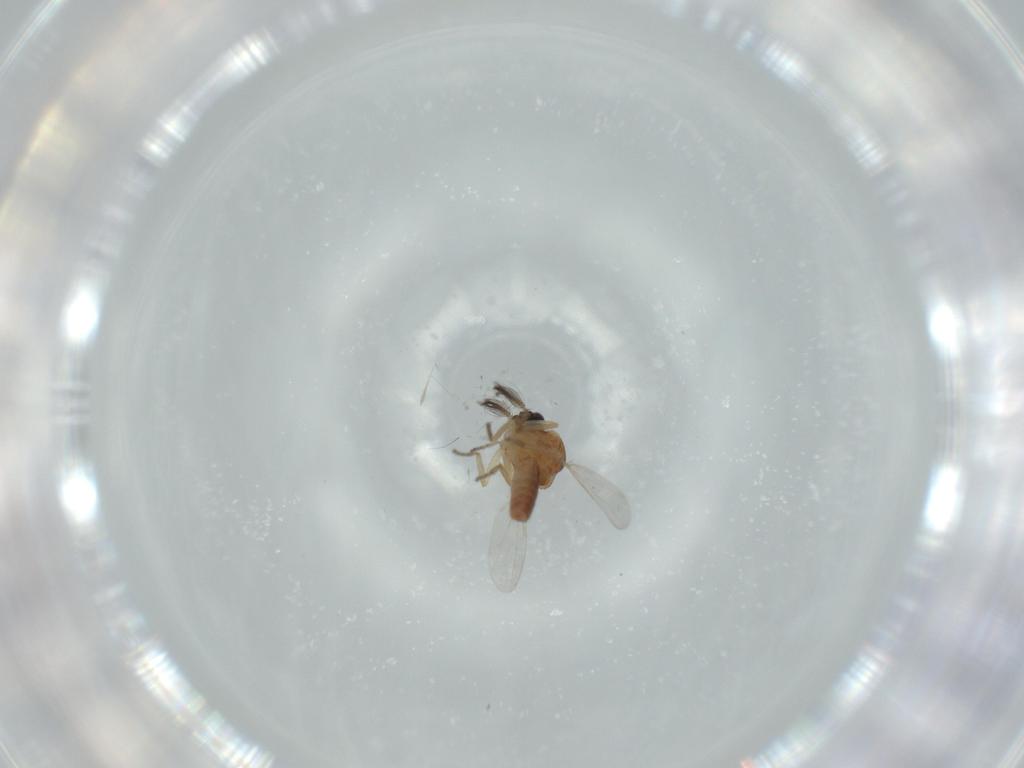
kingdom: Animalia
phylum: Arthropoda
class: Insecta
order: Diptera
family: Ceratopogonidae
